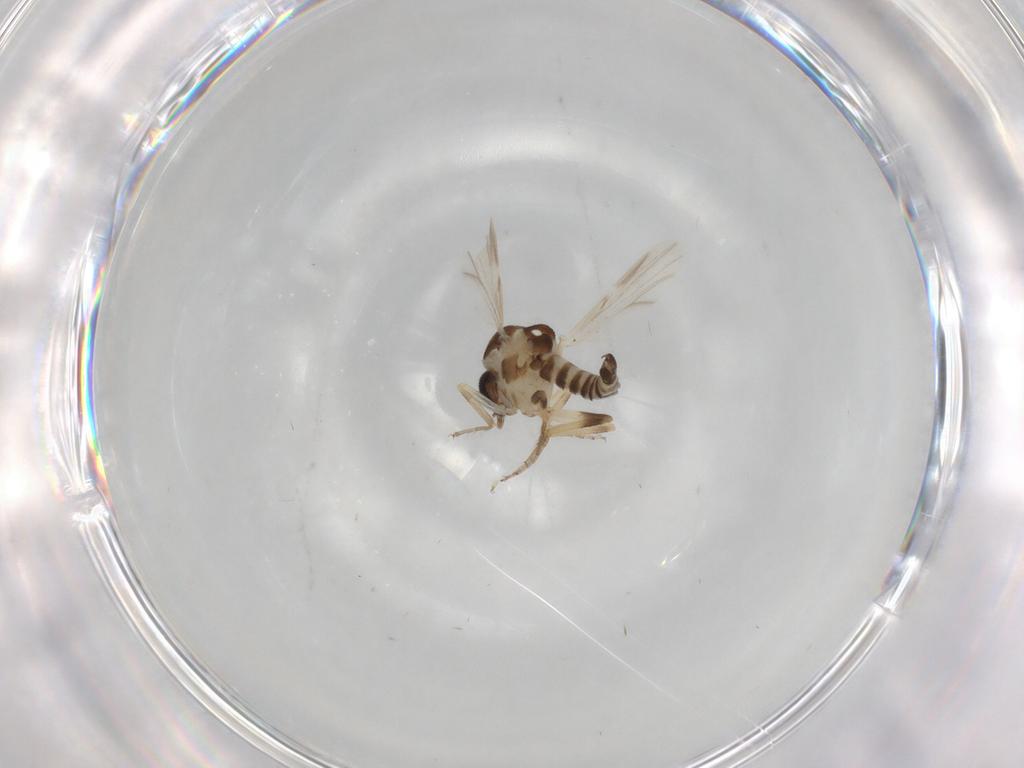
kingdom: Animalia
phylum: Arthropoda
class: Insecta
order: Diptera
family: Ceratopogonidae
